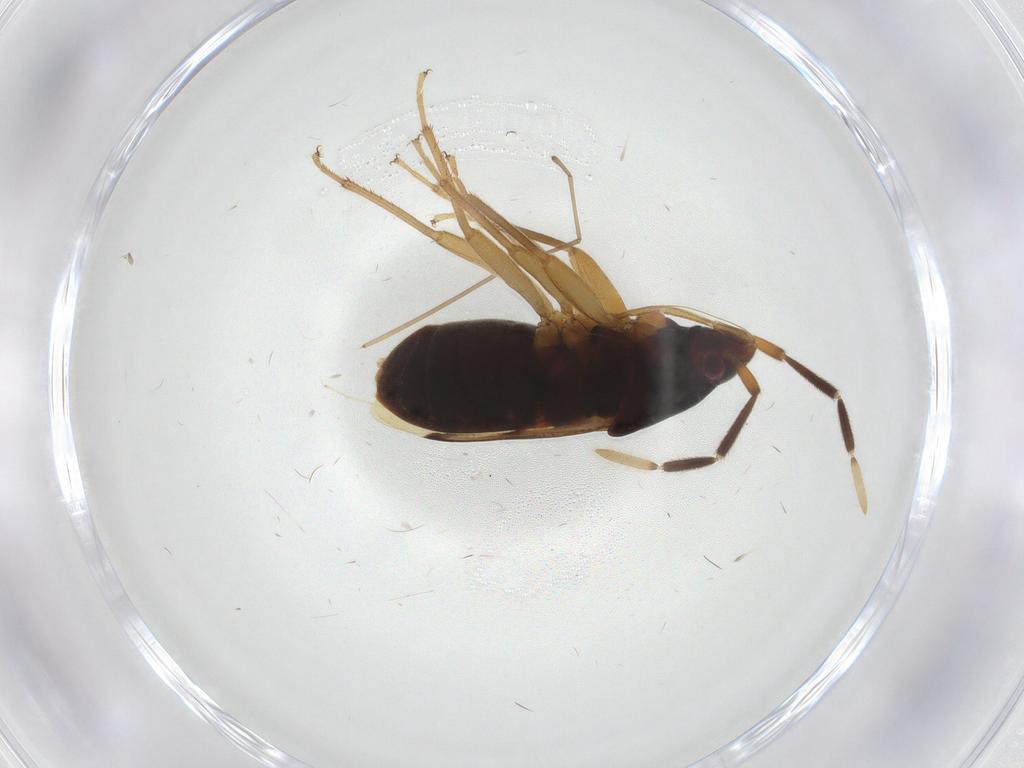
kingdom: Animalia
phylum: Arthropoda
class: Insecta
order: Hemiptera
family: Rhyparochromidae
